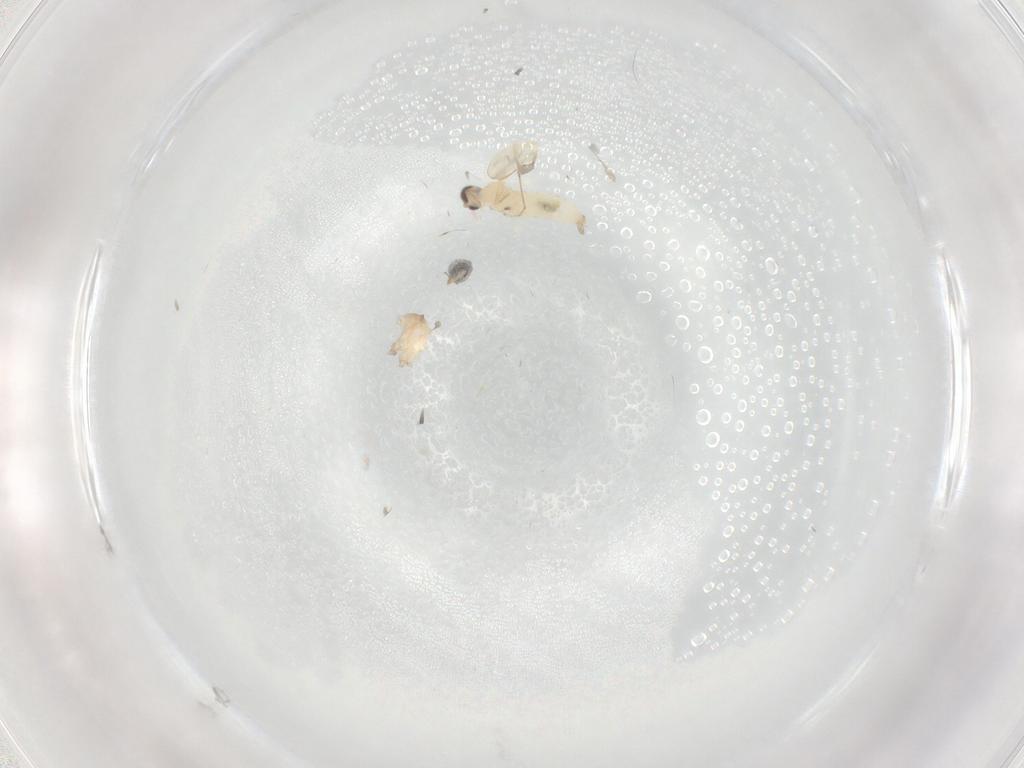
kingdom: Animalia
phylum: Arthropoda
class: Insecta
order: Diptera
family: Cecidomyiidae
